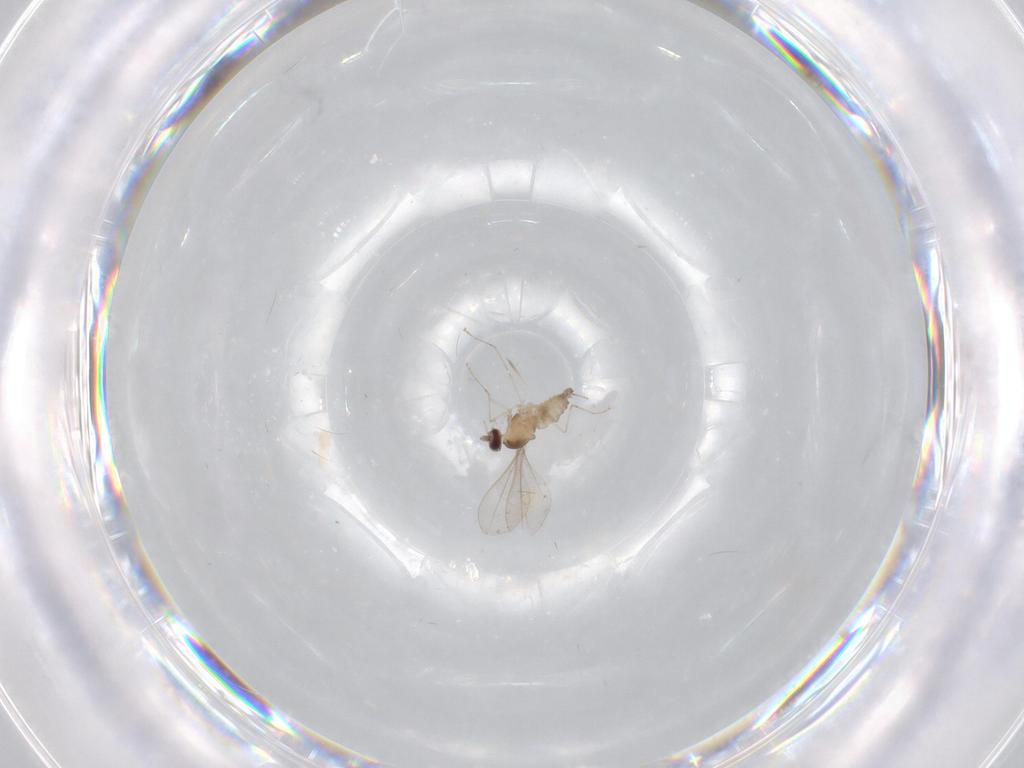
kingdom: Animalia
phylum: Arthropoda
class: Insecta
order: Diptera
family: Cecidomyiidae
